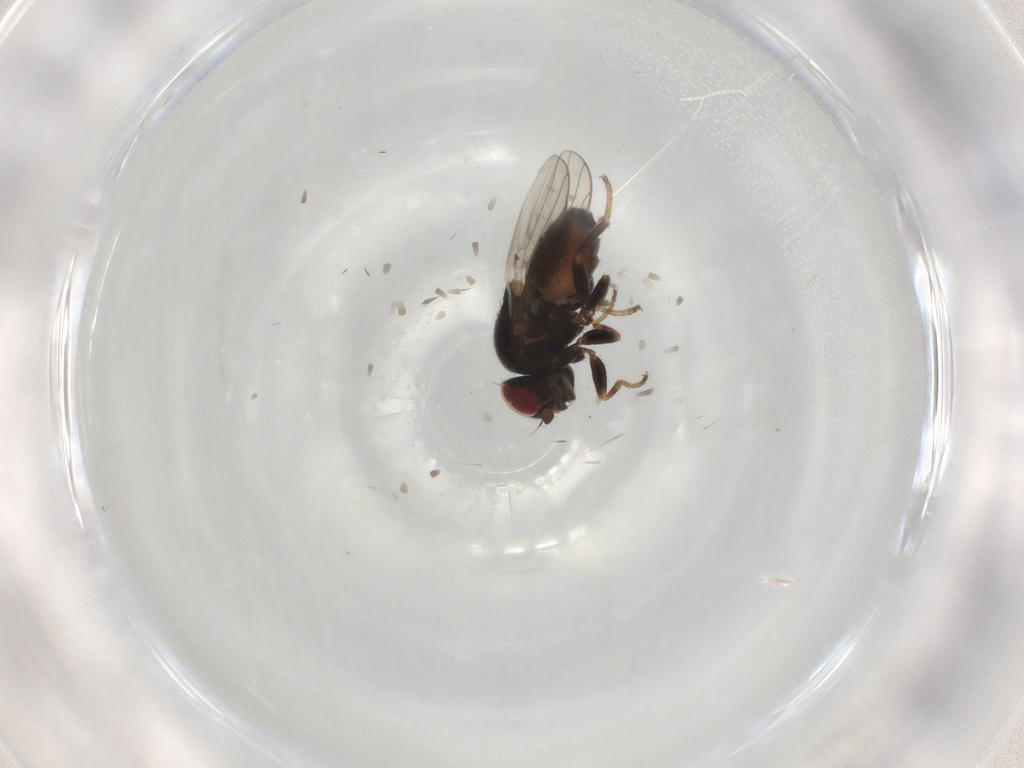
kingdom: Animalia
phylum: Arthropoda
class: Insecta
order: Diptera
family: Chloropidae
